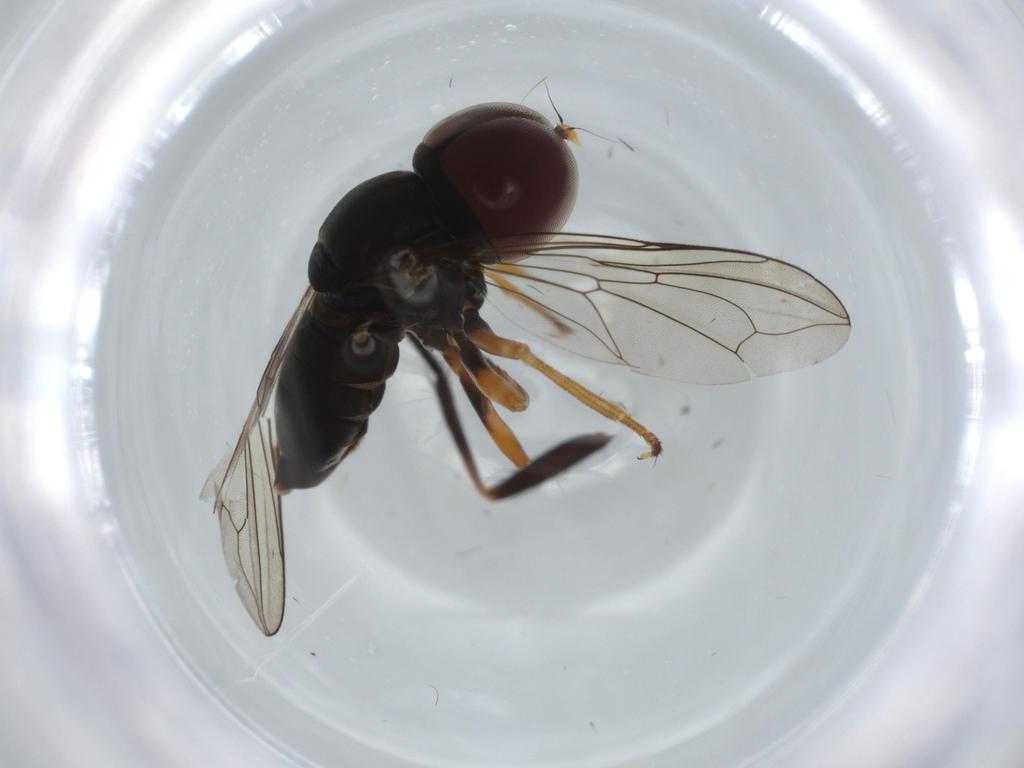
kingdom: Animalia
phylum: Arthropoda
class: Insecta
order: Diptera
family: Fannia
